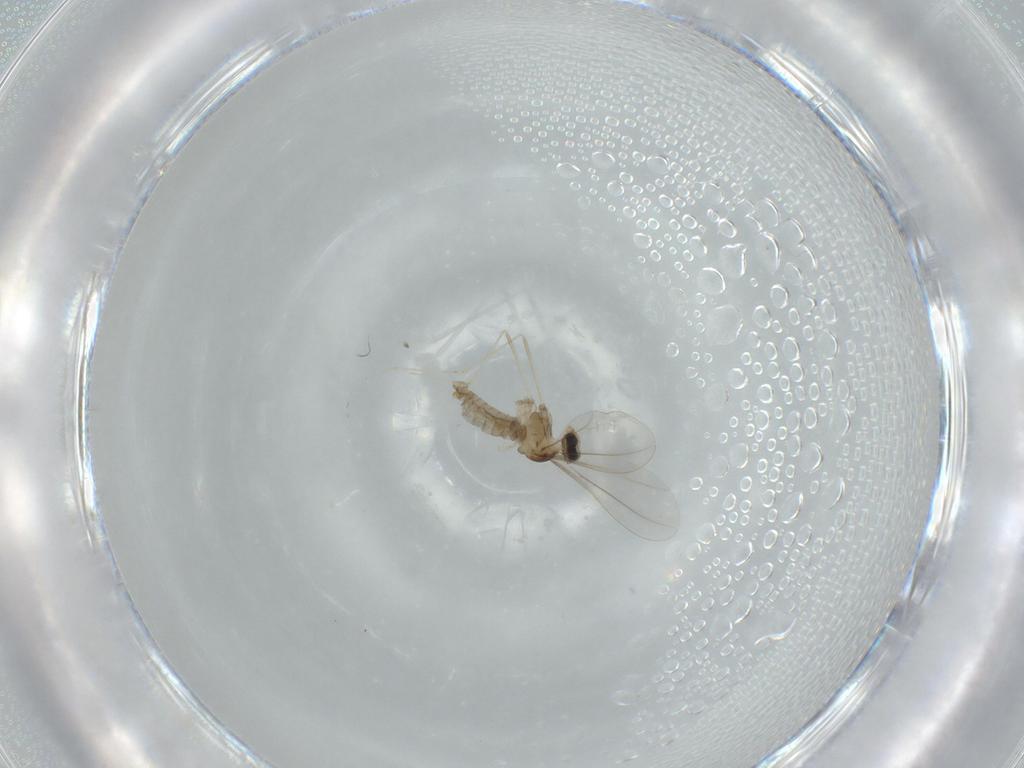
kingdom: Animalia
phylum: Arthropoda
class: Insecta
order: Diptera
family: Cecidomyiidae
